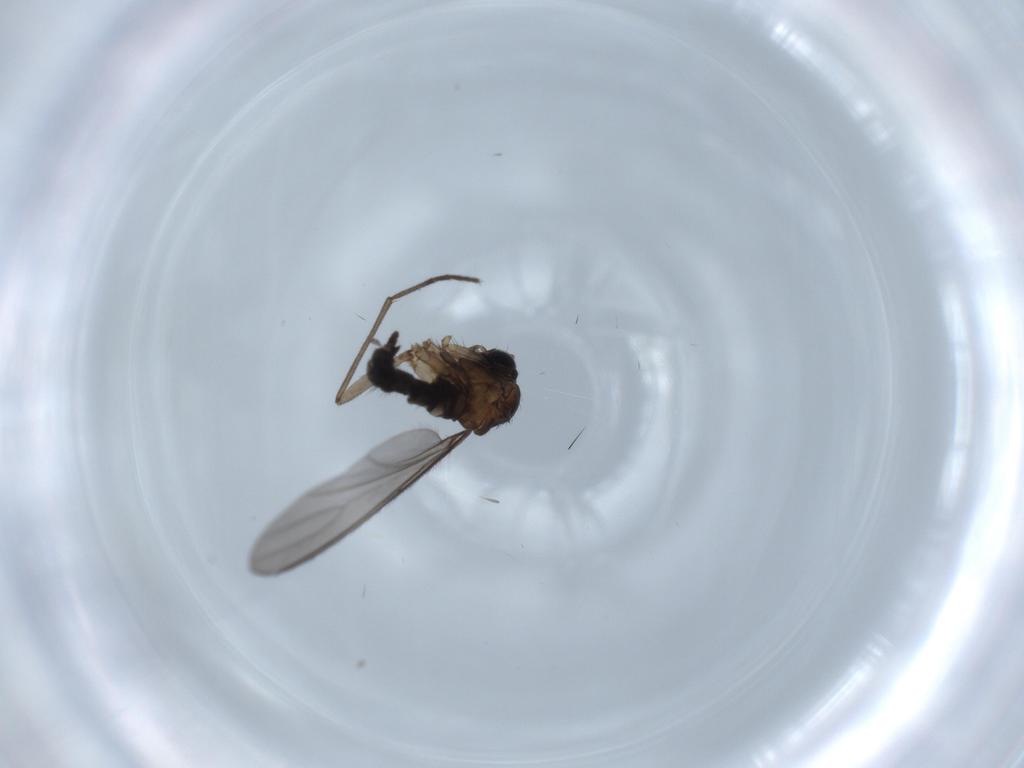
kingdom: Animalia
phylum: Arthropoda
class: Insecta
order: Diptera
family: Sciaridae
